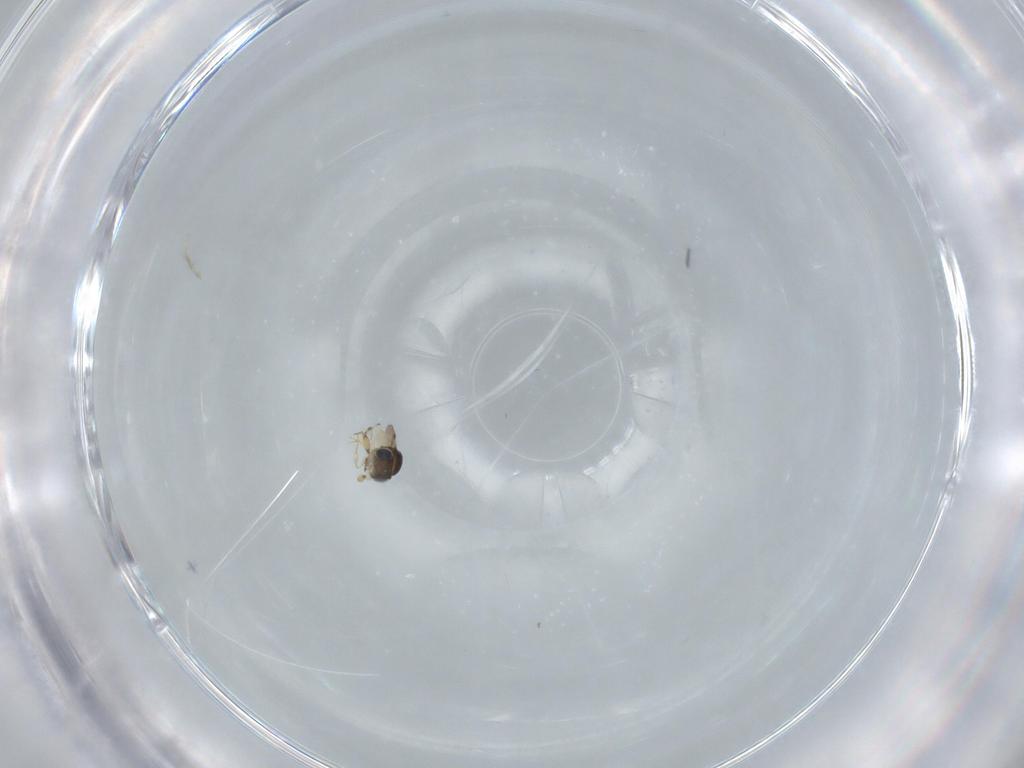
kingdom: Animalia
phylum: Arthropoda
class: Insecta
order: Hymenoptera
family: Scelionidae
